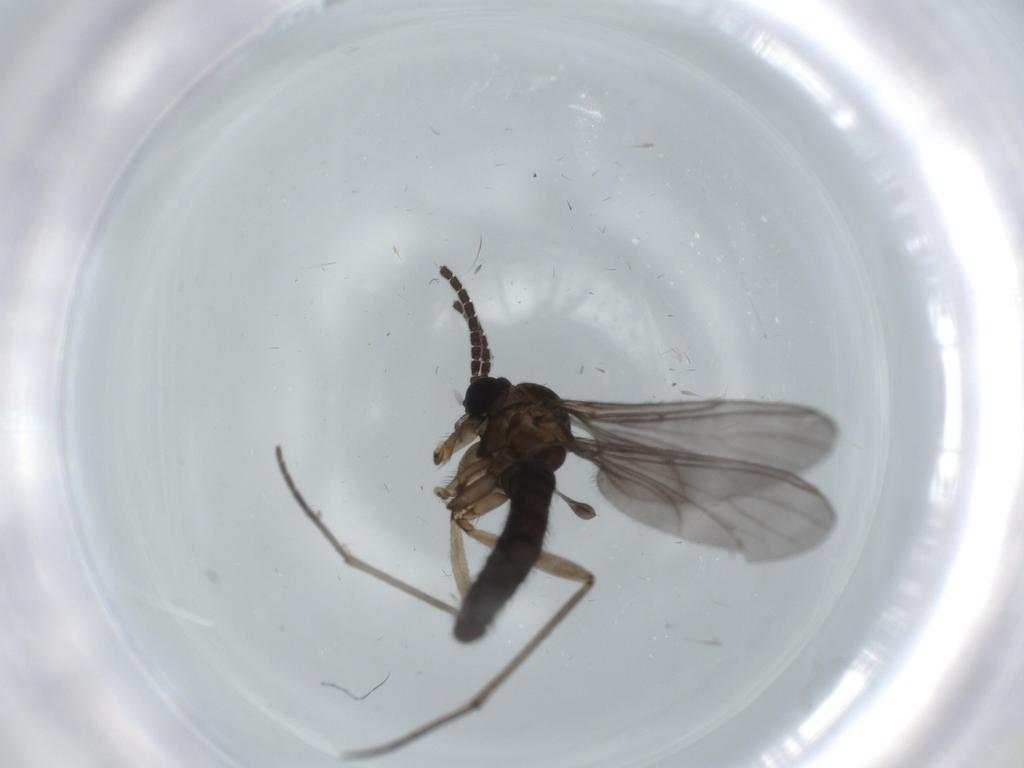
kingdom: Animalia
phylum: Arthropoda
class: Insecta
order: Diptera
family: Sciaridae
